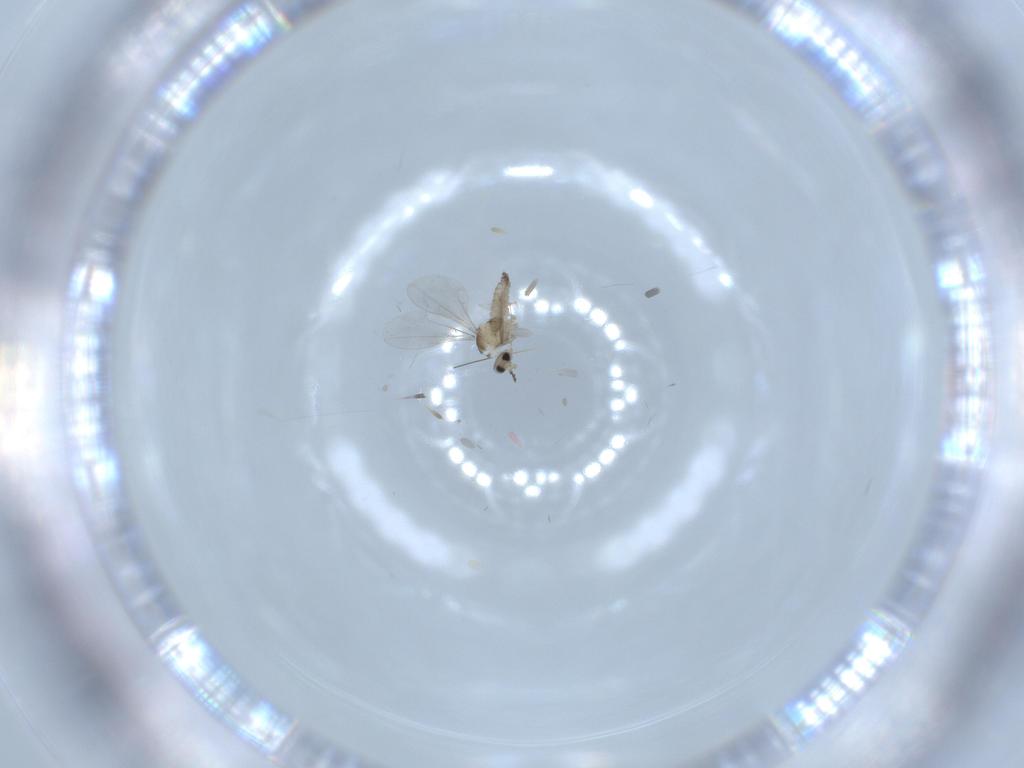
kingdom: Animalia
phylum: Arthropoda
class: Insecta
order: Diptera
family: Cecidomyiidae
